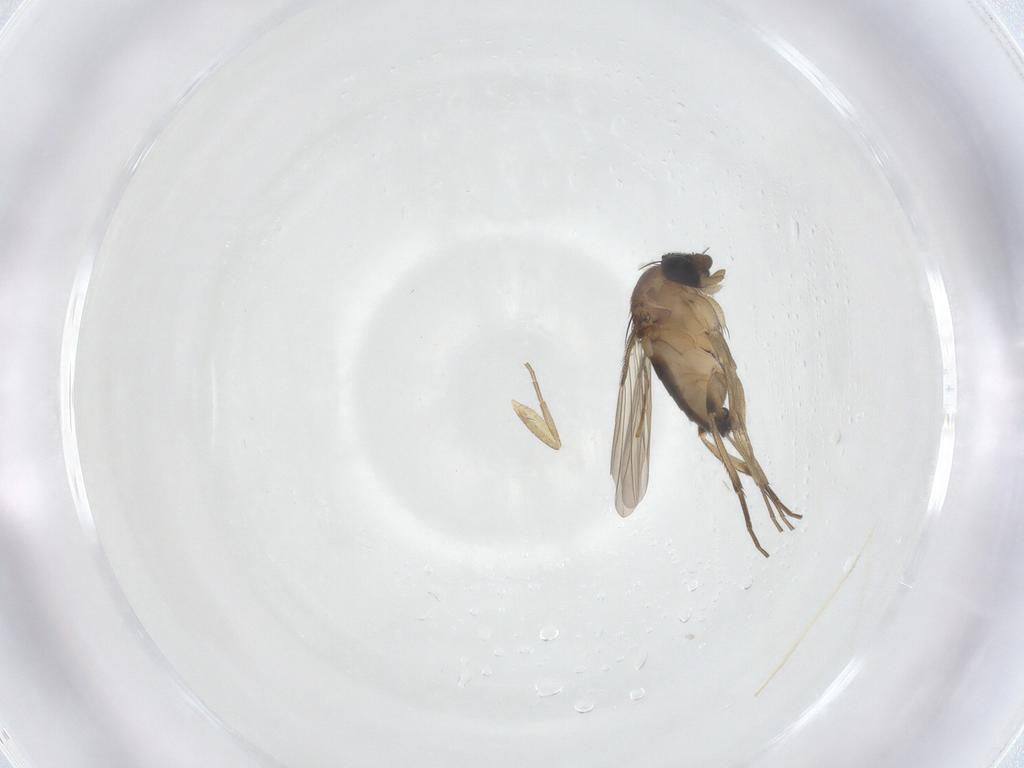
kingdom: Animalia
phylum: Arthropoda
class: Insecta
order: Diptera
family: Phoridae
